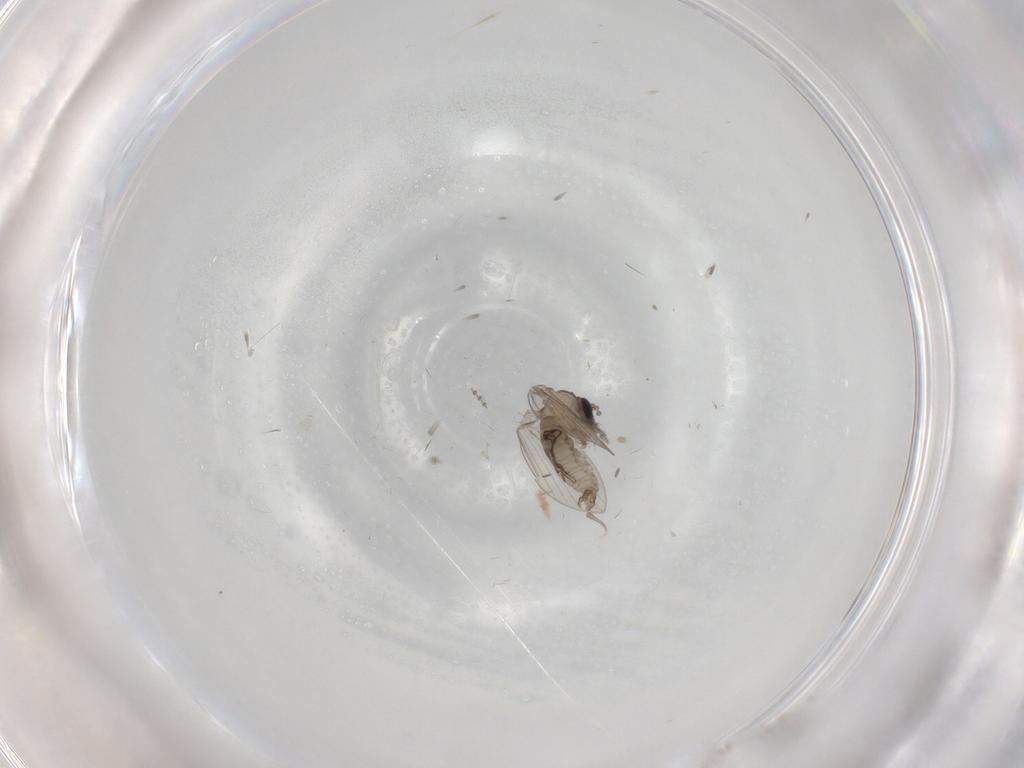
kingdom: Animalia
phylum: Arthropoda
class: Insecta
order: Diptera
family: Psychodidae
